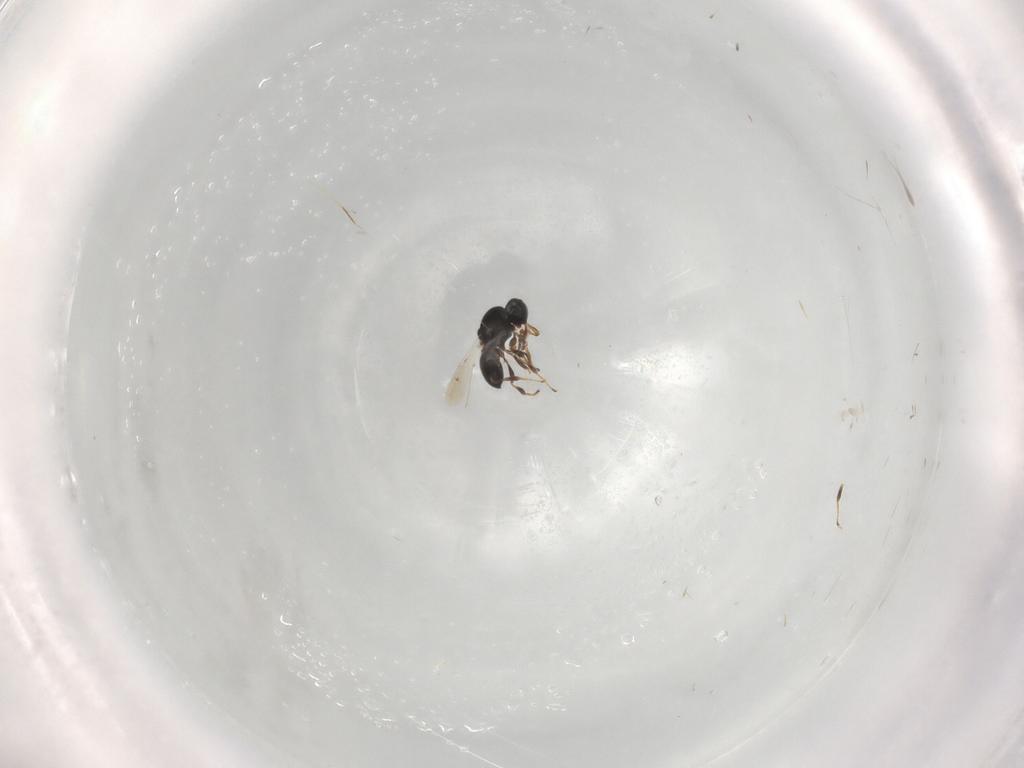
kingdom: Animalia
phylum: Arthropoda
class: Insecta
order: Hymenoptera
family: Platygastridae
